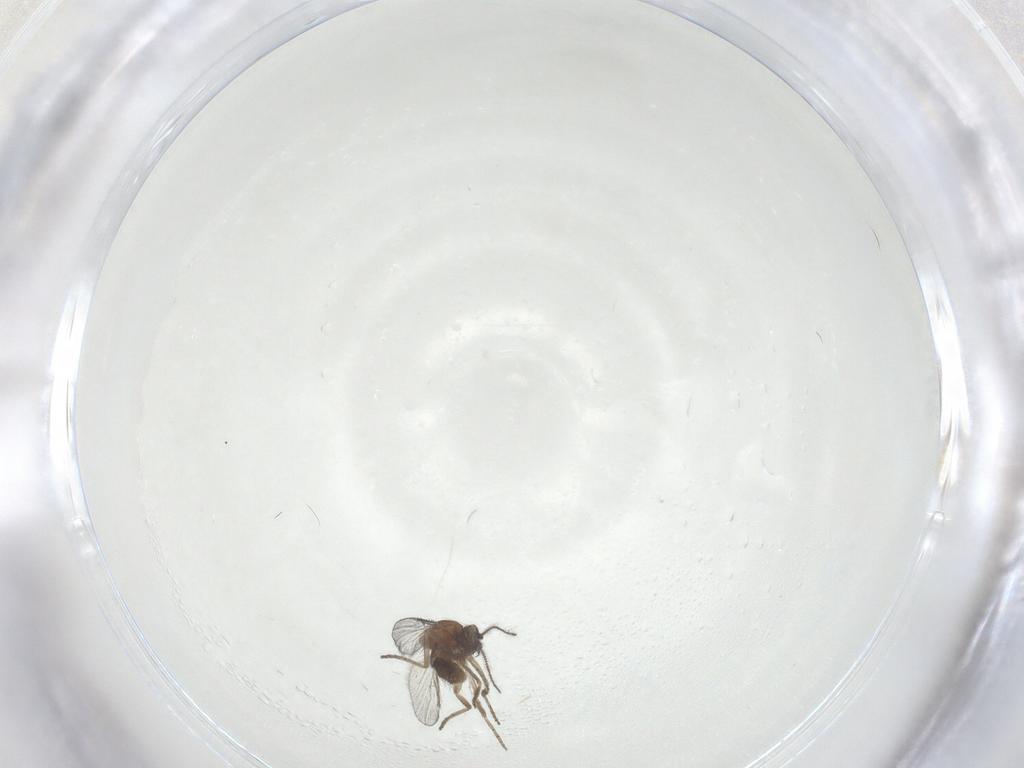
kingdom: Animalia
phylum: Arthropoda
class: Insecta
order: Diptera
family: Ceratopogonidae
